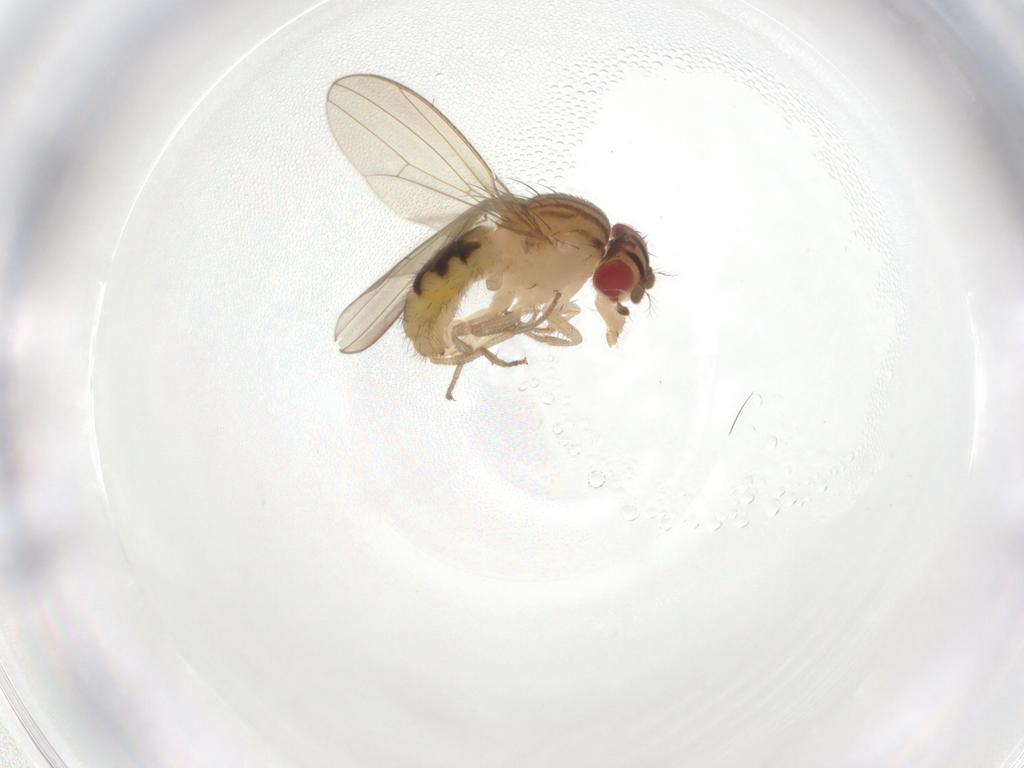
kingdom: Animalia
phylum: Arthropoda
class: Insecta
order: Diptera
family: Drosophilidae
